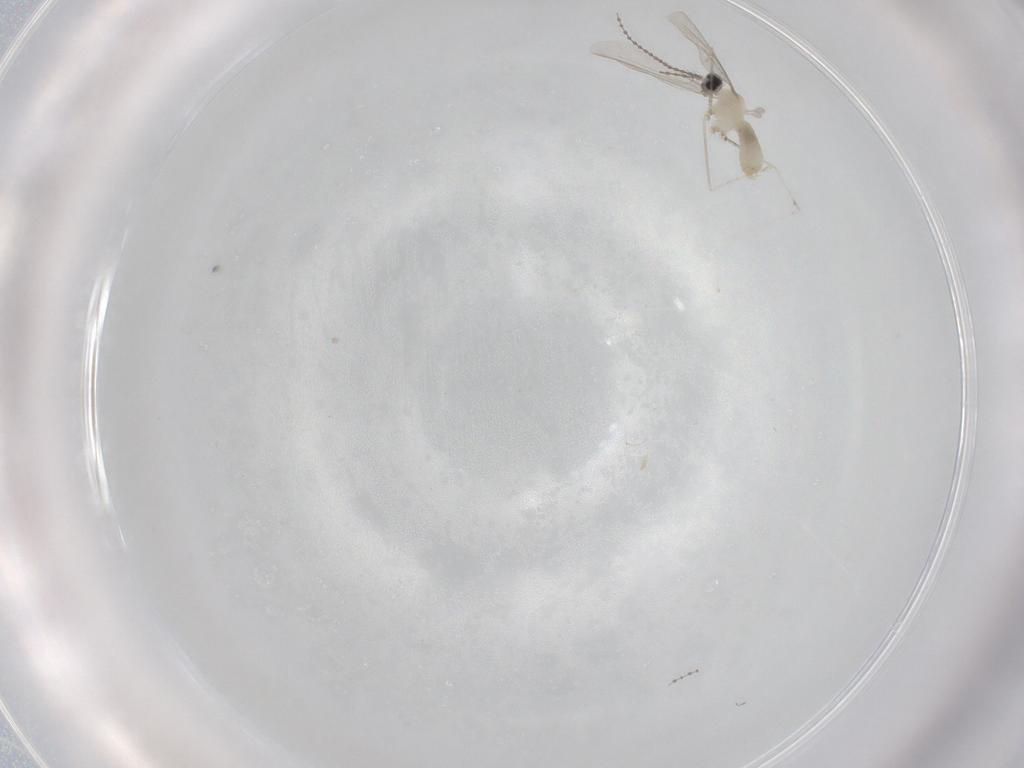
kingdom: Animalia
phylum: Arthropoda
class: Insecta
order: Diptera
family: Cecidomyiidae
